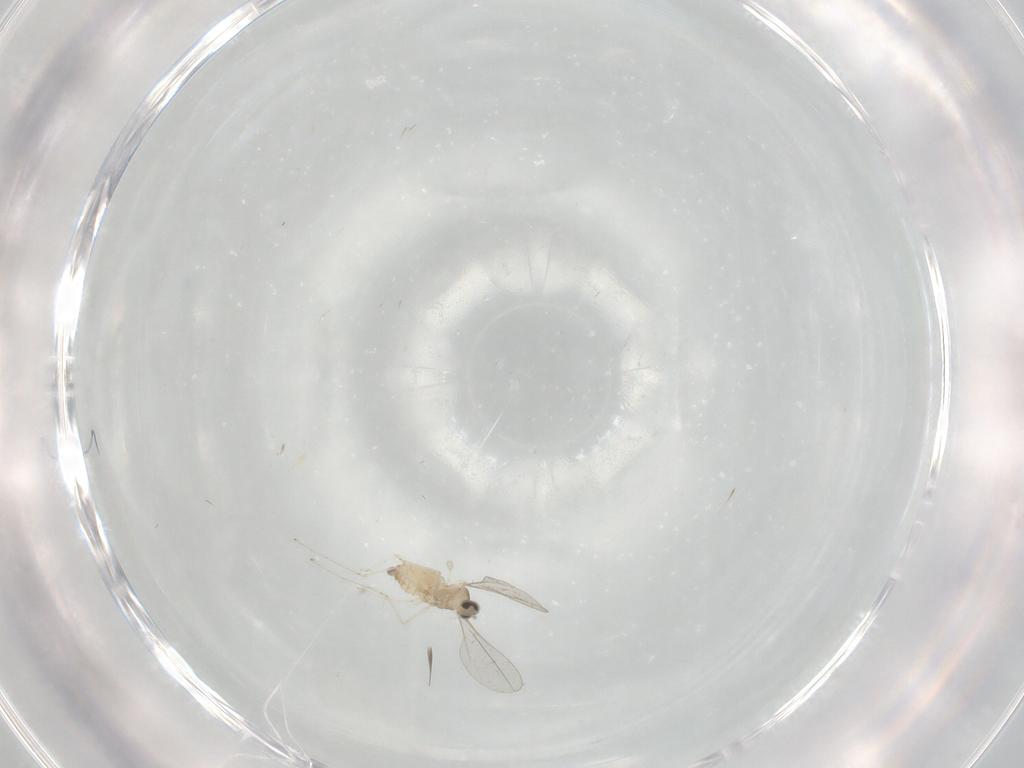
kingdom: Animalia
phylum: Arthropoda
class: Insecta
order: Diptera
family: Cecidomyiidae
